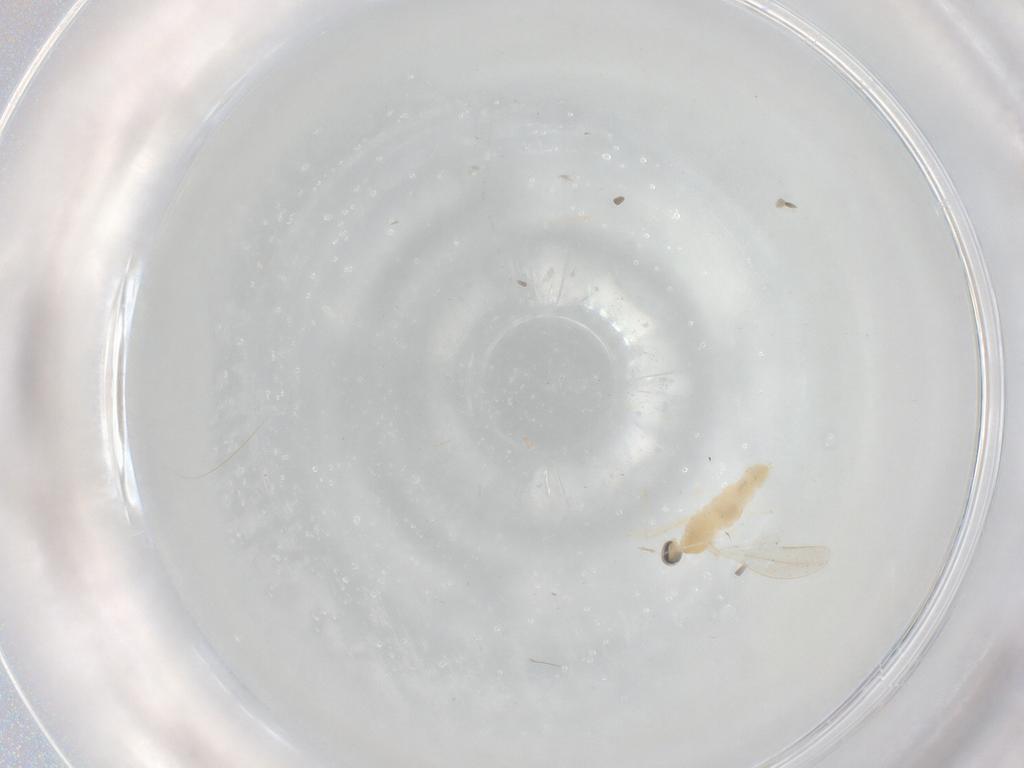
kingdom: Animalia
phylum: Arthropoda
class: Insecta
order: Diptera
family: Cecidomyiidae
